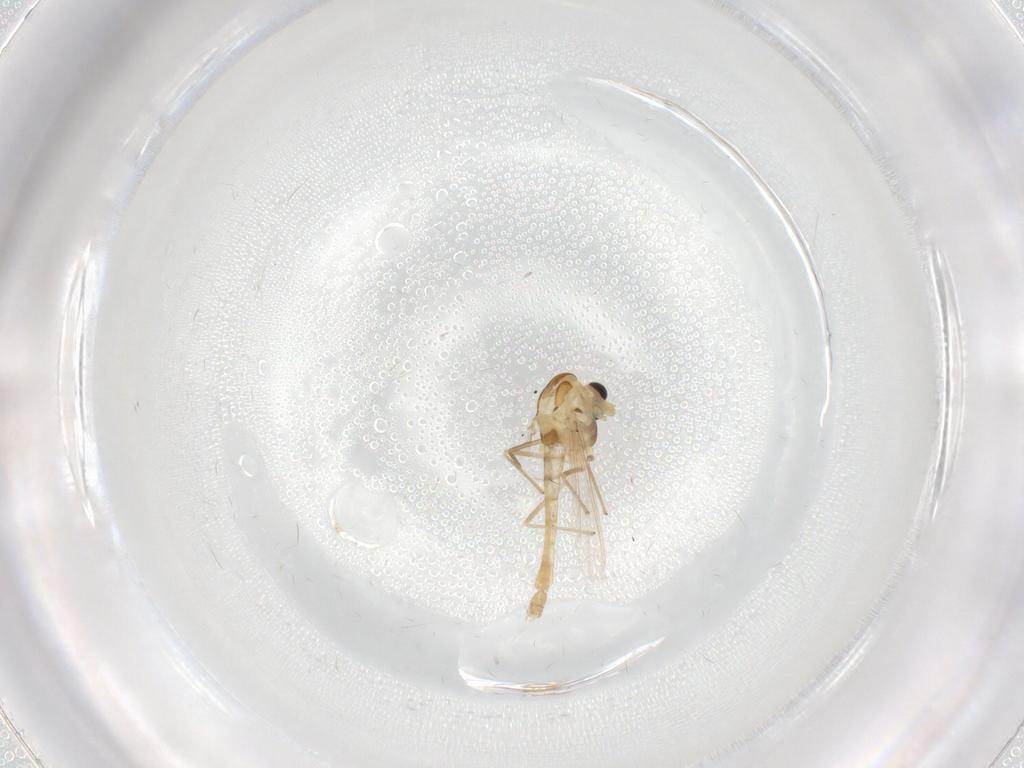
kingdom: Animalia
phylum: Arthropoda
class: Insecta
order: Diptera
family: Chironomidae
